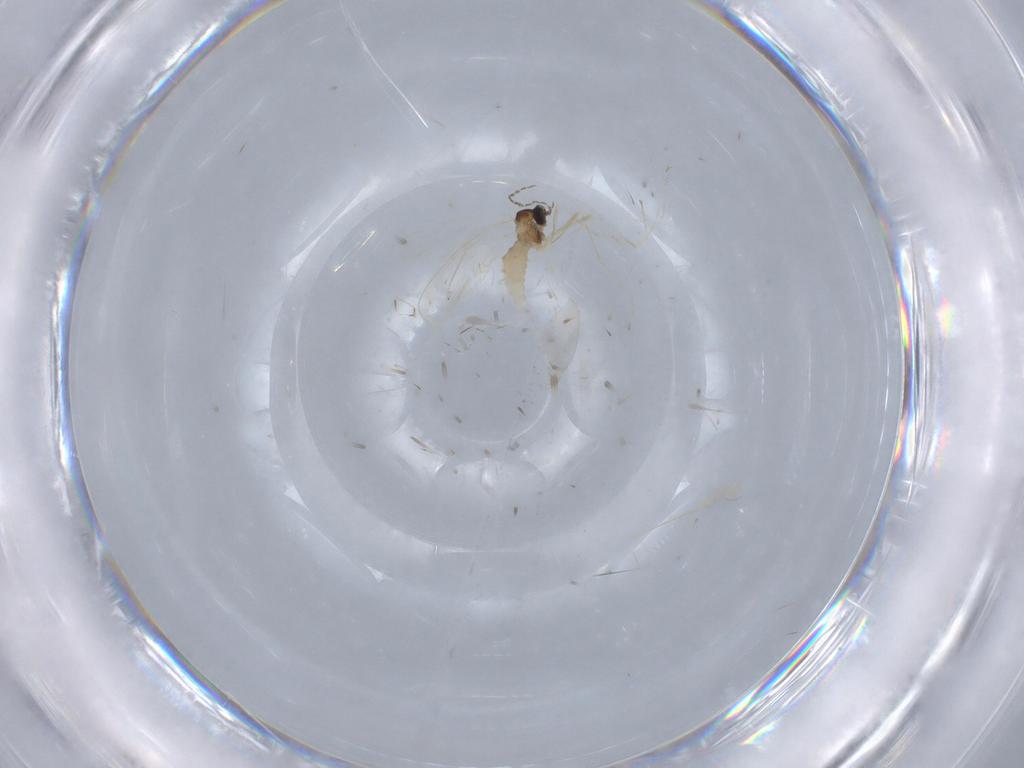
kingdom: Animalia
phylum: Arthropoda
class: Insecta
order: Diptera
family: Cecidomyiidae
